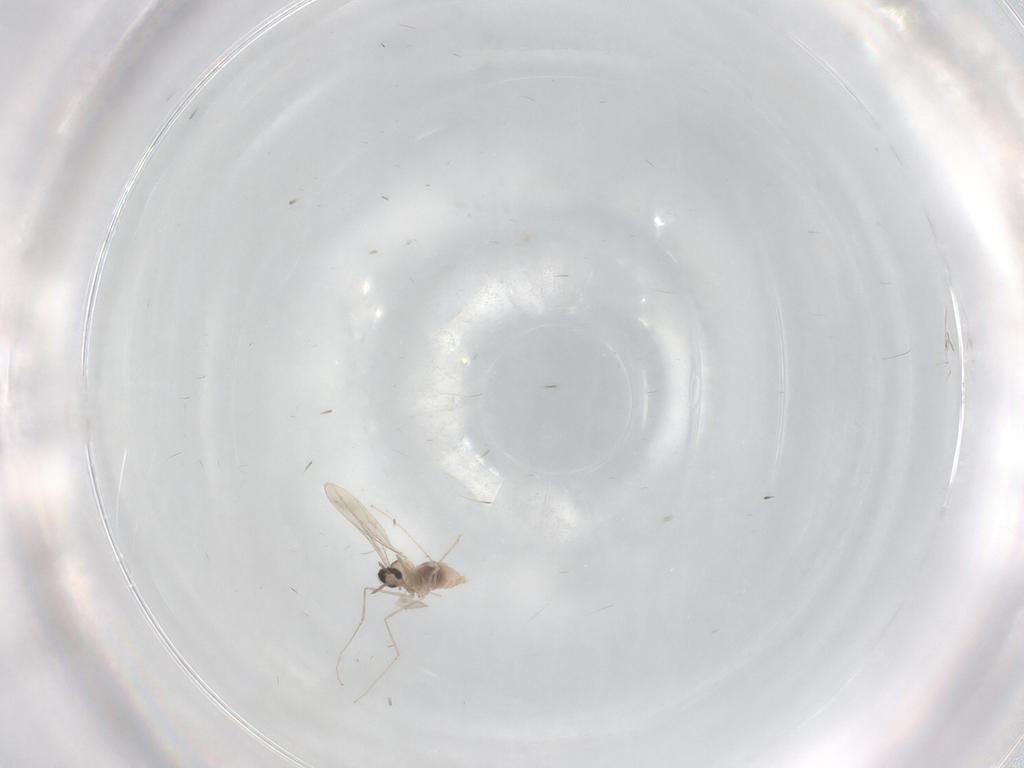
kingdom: Animalia
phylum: Arthropoda
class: Insecta
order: Diptera
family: Sciaridae
